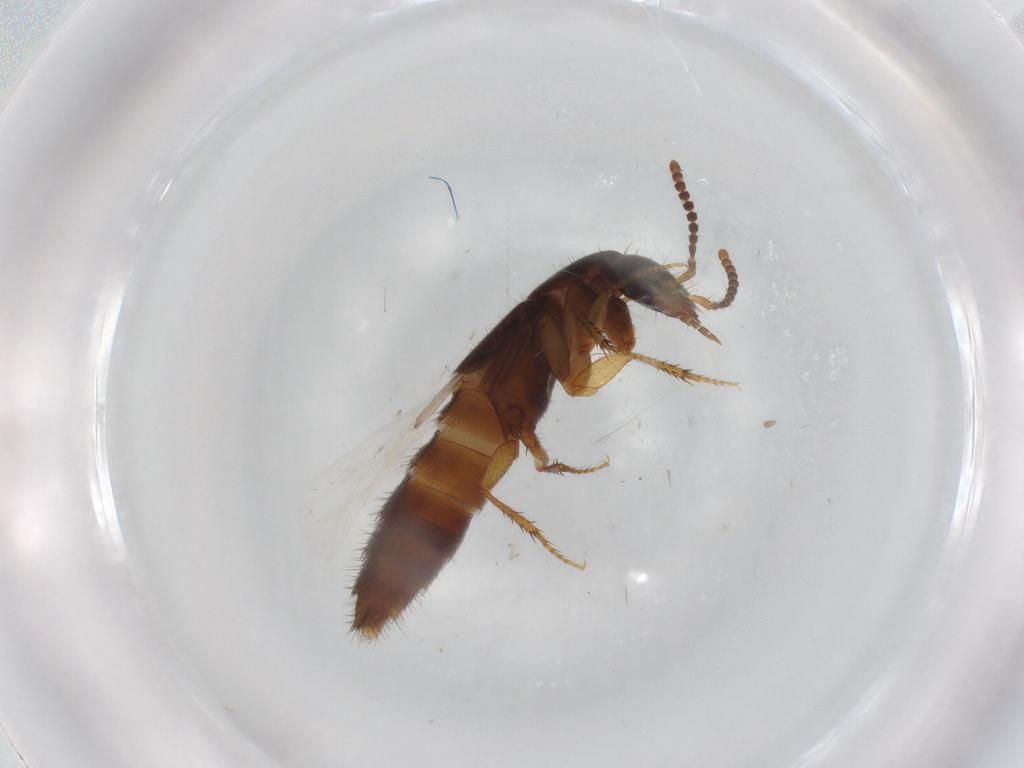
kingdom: Animalia
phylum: Arthropoda
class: Insecta
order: Coleoptera
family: Staphylinidae
